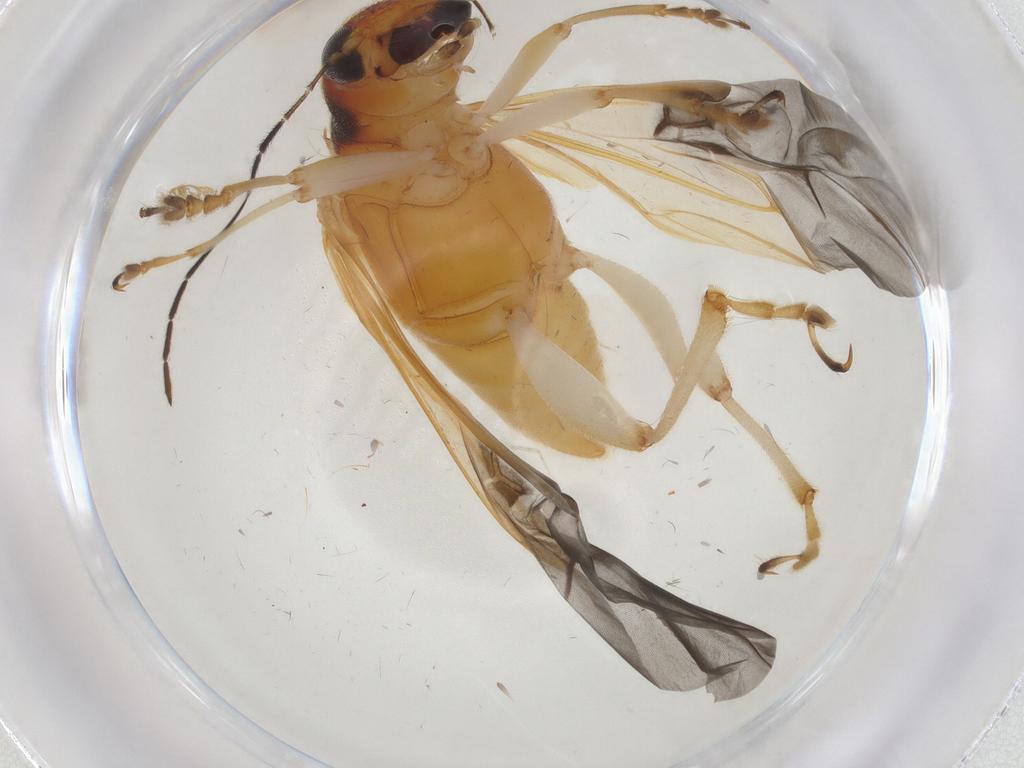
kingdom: Animalia
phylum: Arthropoda
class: Insecta
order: Coleoptera
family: Chrysomelidae
